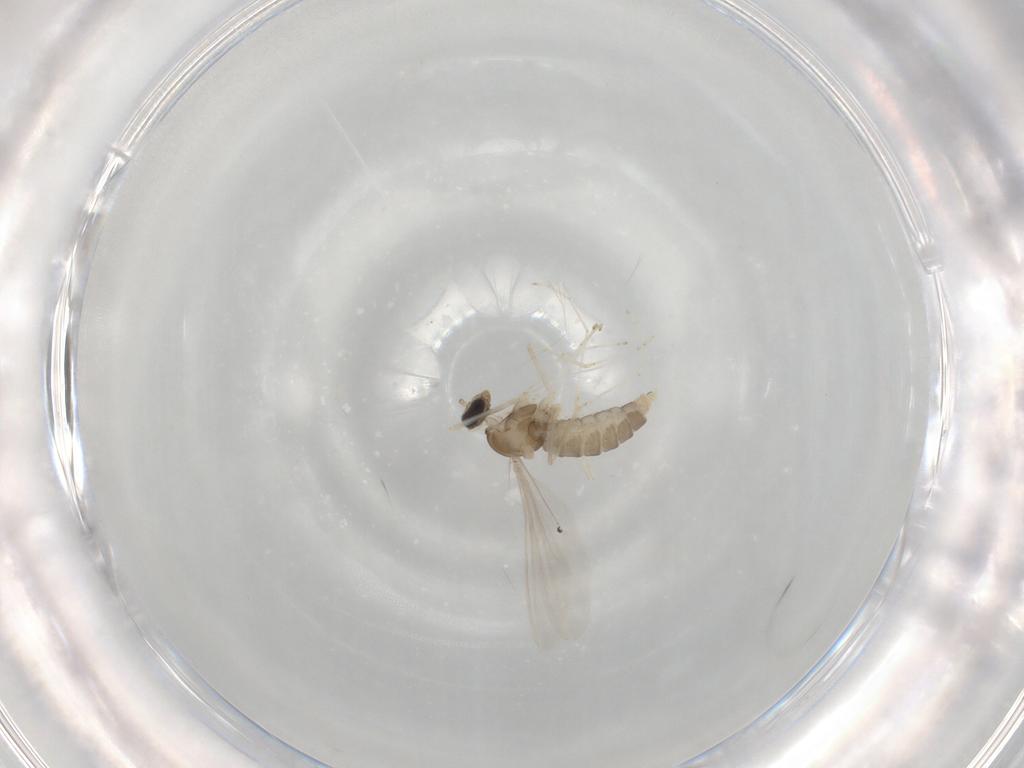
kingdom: Animalia
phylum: Arthropoda
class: Insecta
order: Diptera
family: Cecidomyiidae
